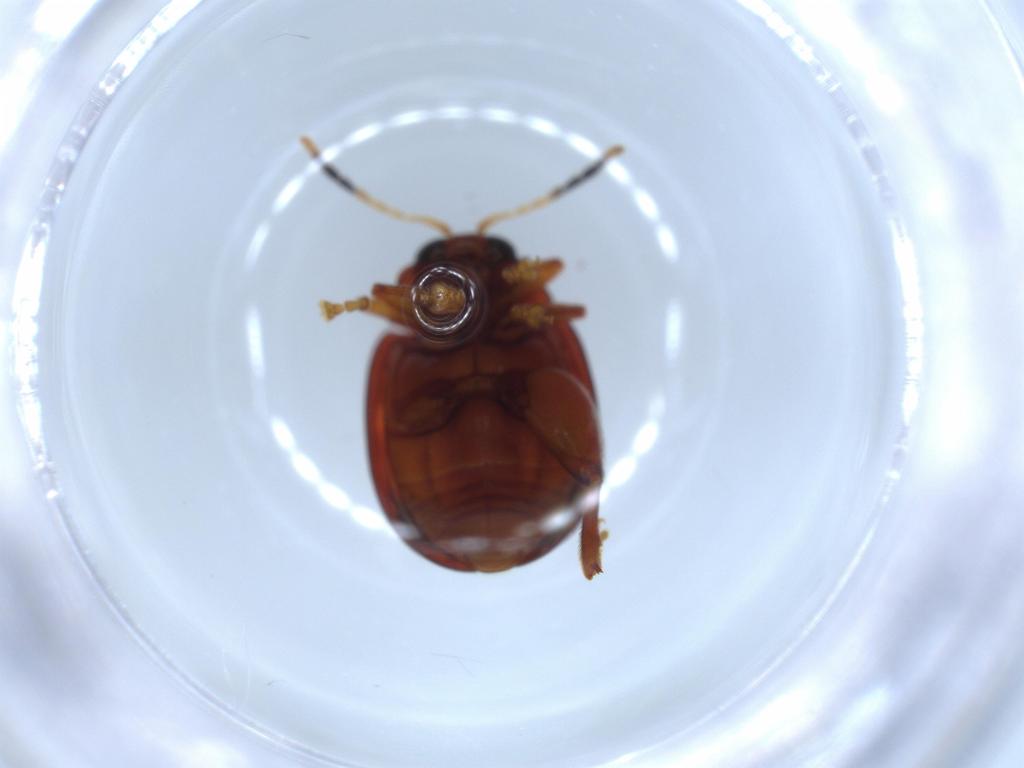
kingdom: Animalia
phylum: Arthropoda
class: Insecta
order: Coleoptera
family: Chrysomelidae
